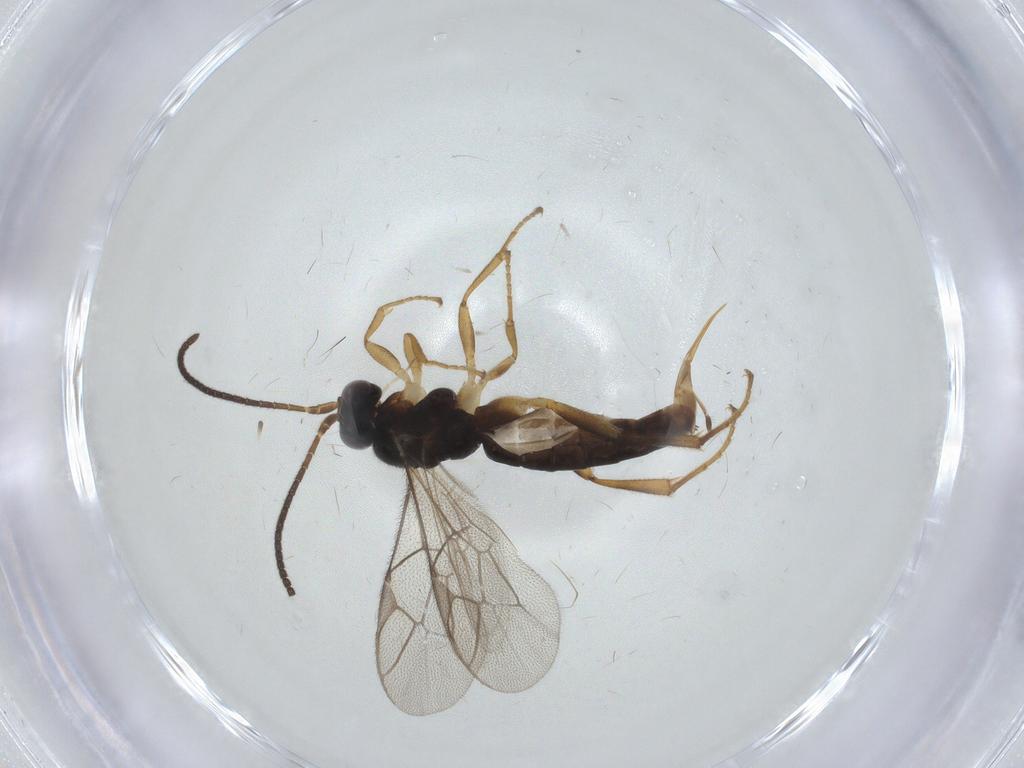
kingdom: Animalia
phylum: Arthropoda
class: Insecta
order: Hymenoptera
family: Ichneumonidae
